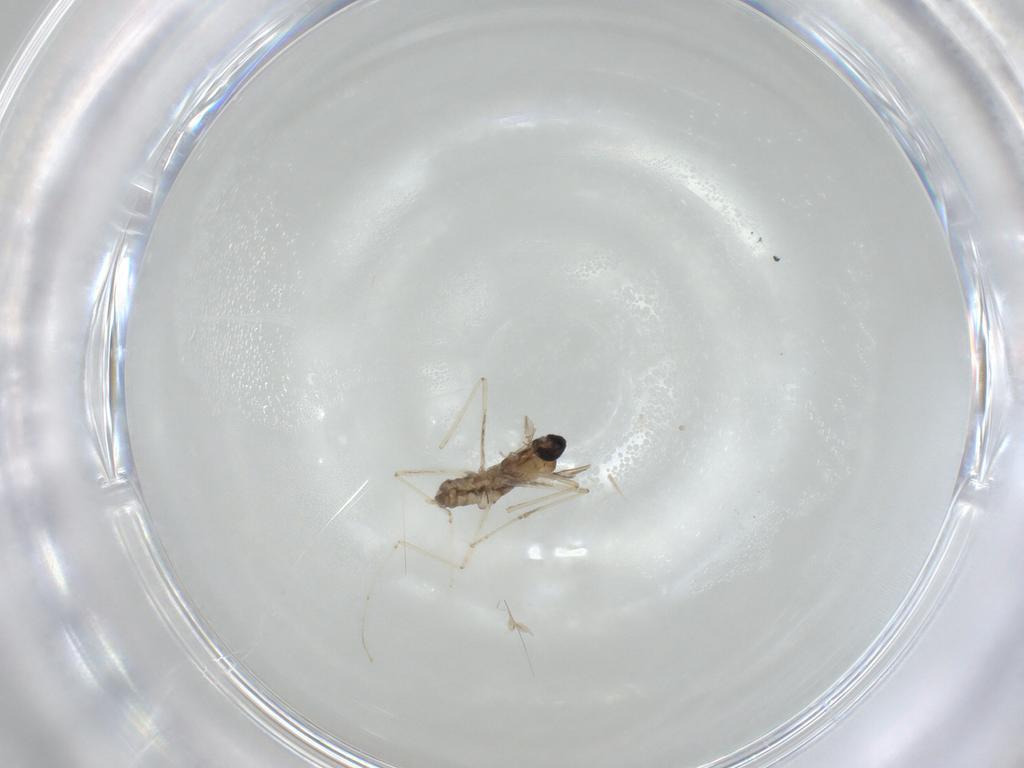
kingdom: Animalia
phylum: Arthropoda
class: Insecta
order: Diptera
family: Cecidomyiidae
